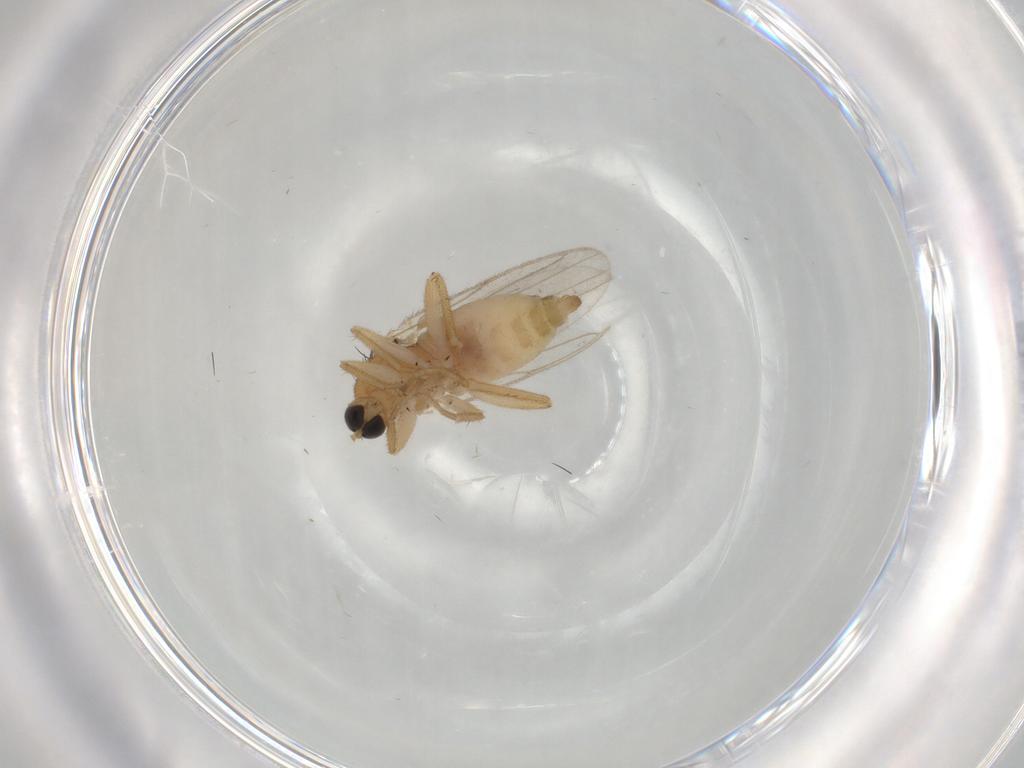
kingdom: Animalia
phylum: Arthropoda
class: Insecta
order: Diptera
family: Hybotidae
